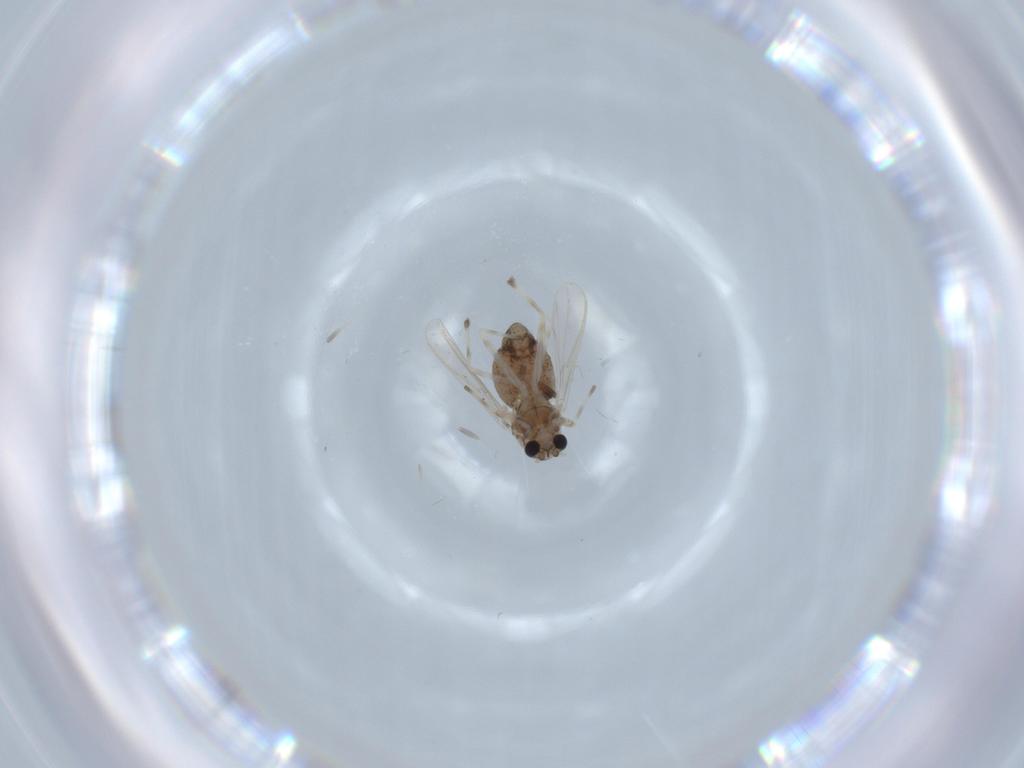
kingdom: Animalia
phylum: Arthropoda
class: Insecta
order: Diptera
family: Chironomidae
